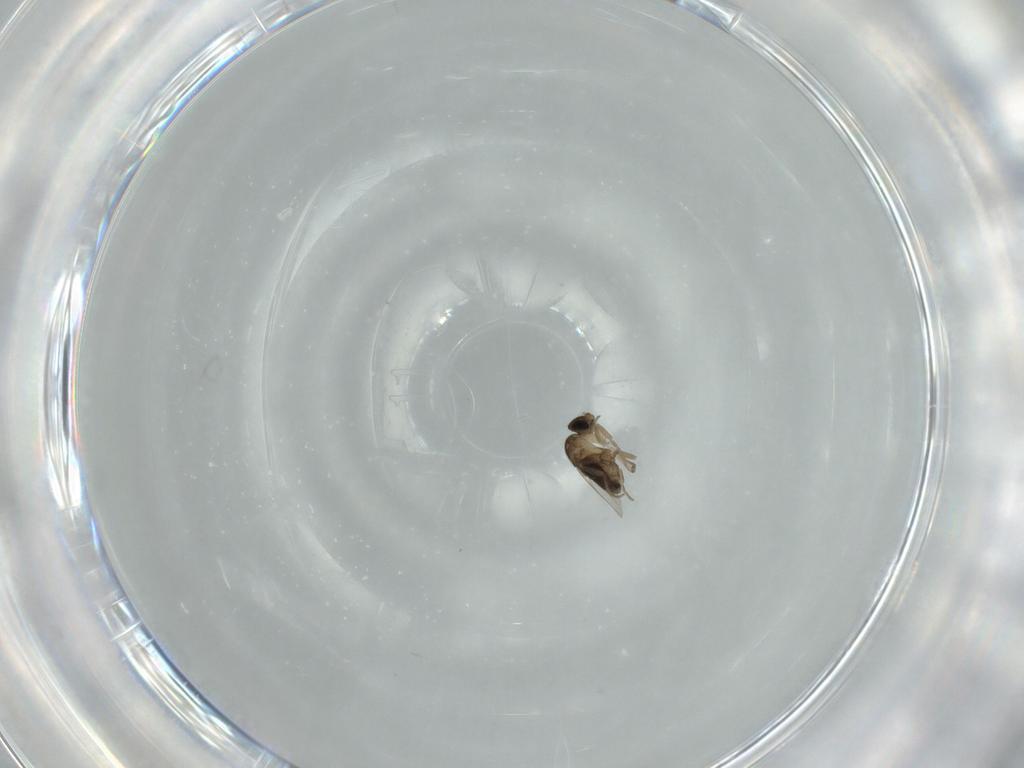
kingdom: Animalia
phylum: Arthropoda
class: Insecta
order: Diptera
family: Phoridae
